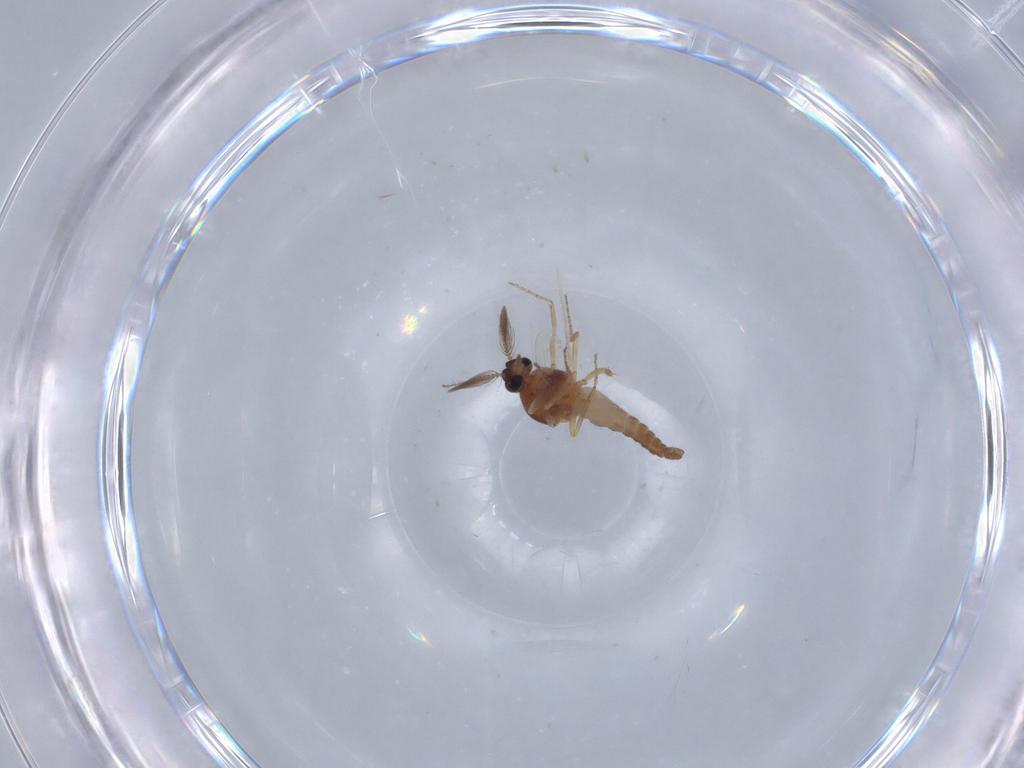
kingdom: Animalia
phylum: Arthropoda
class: Insecta
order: Diptera
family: Ceratopogonidae
